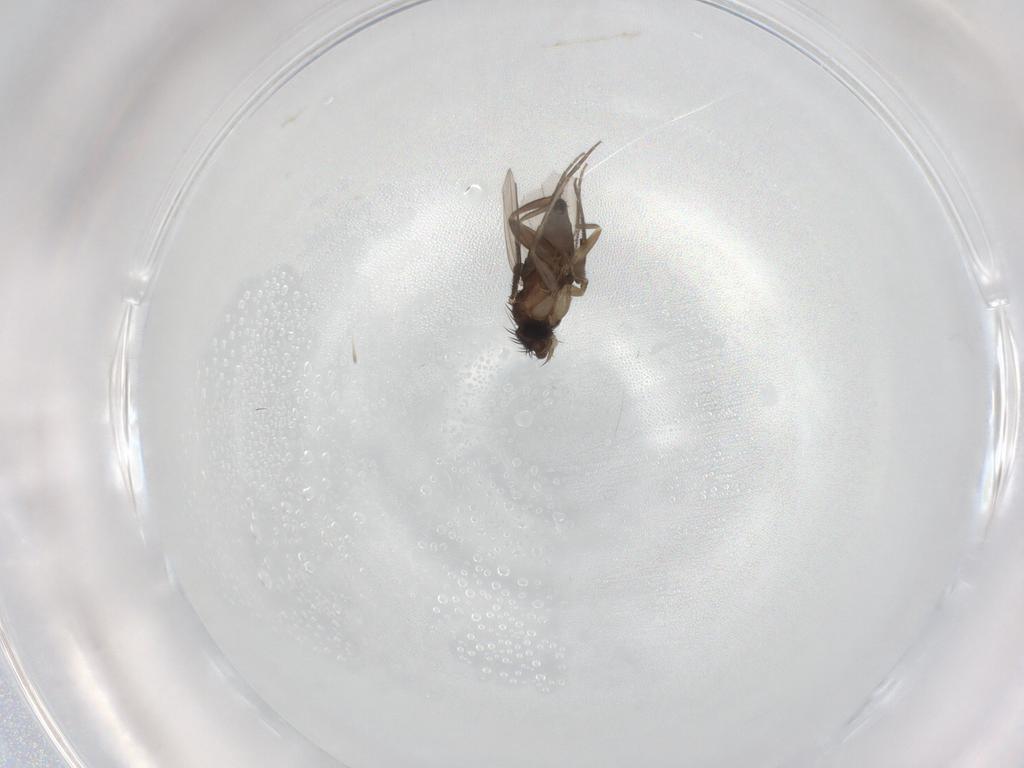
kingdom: Animalia
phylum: Arthropoda
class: Insecta
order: Diptera
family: Phoridae
